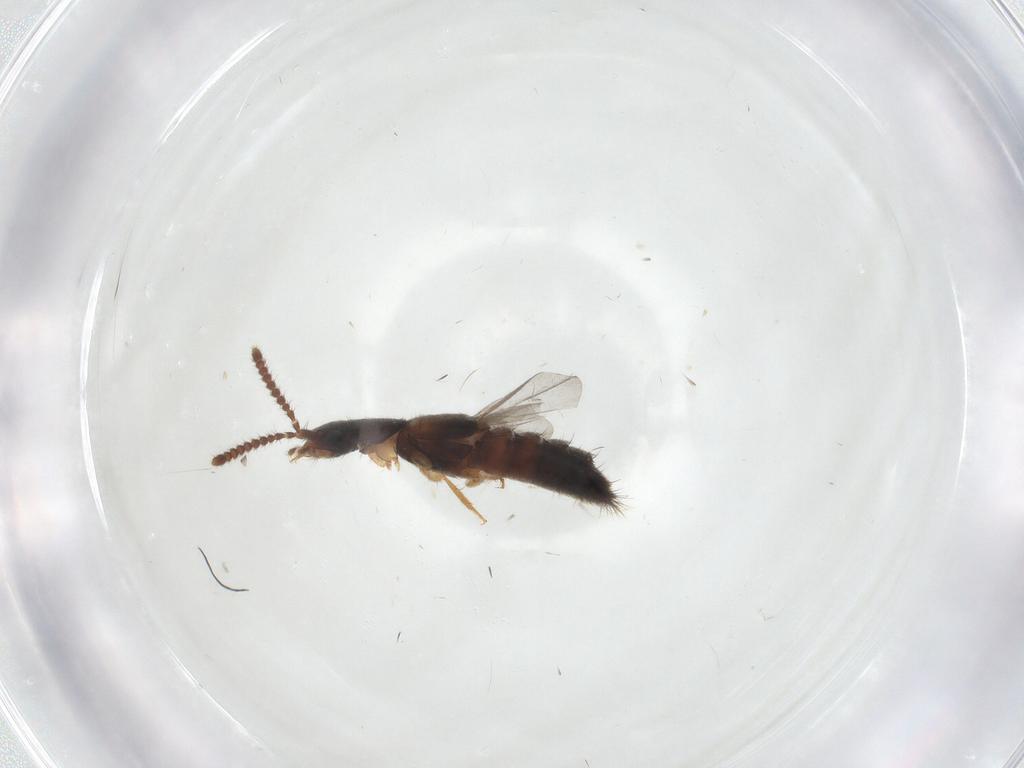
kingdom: Animalia
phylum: Arthropoda
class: Insecta
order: Coleoptera
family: Staphylinidae
